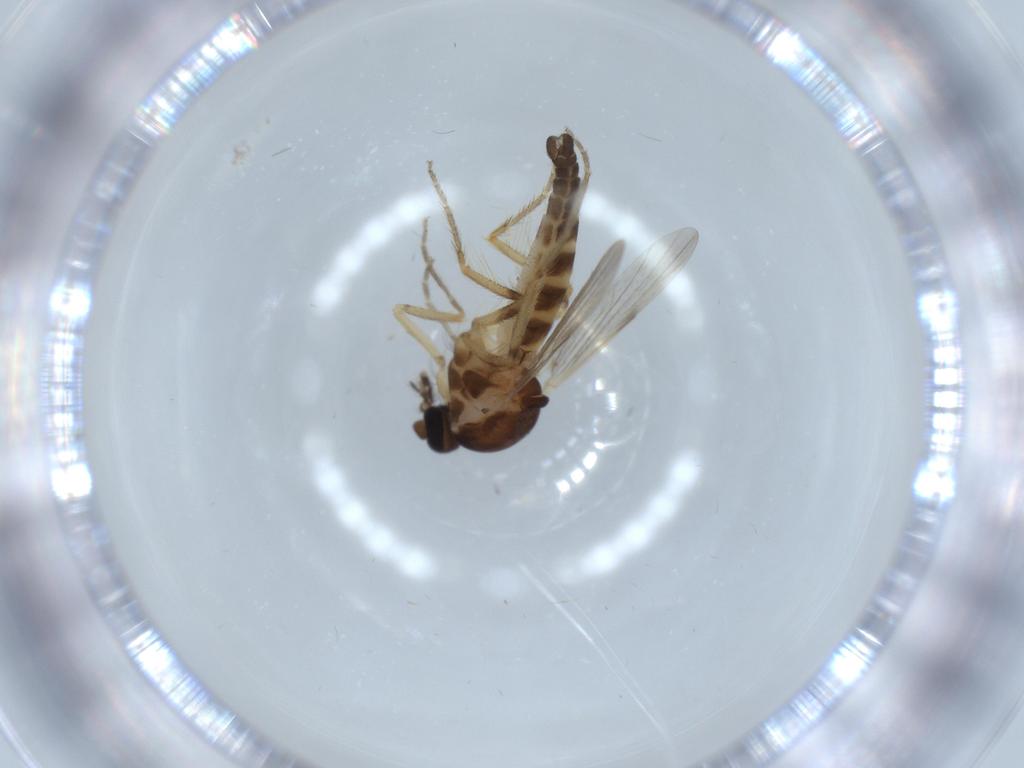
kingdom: Animalia
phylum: Arthropoda
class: Insecta
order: Diptera
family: Ceratopogonidae
